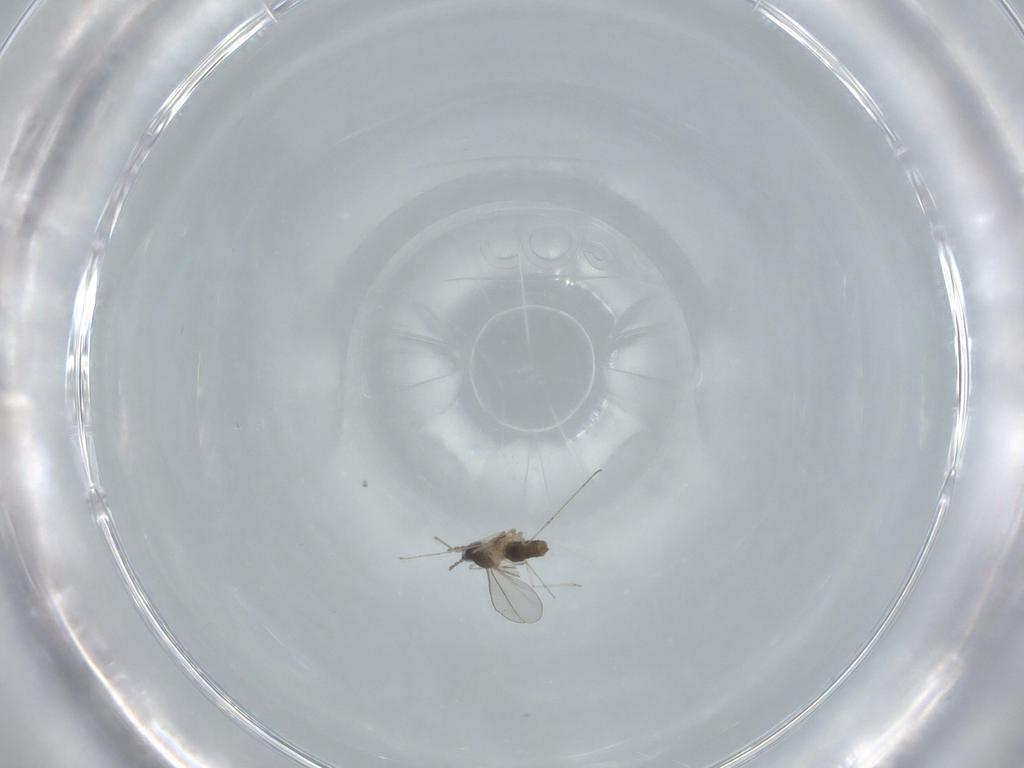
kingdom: Animalia
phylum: Arthropoda
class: Insecta
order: Diptera
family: Cecidomyiidae
